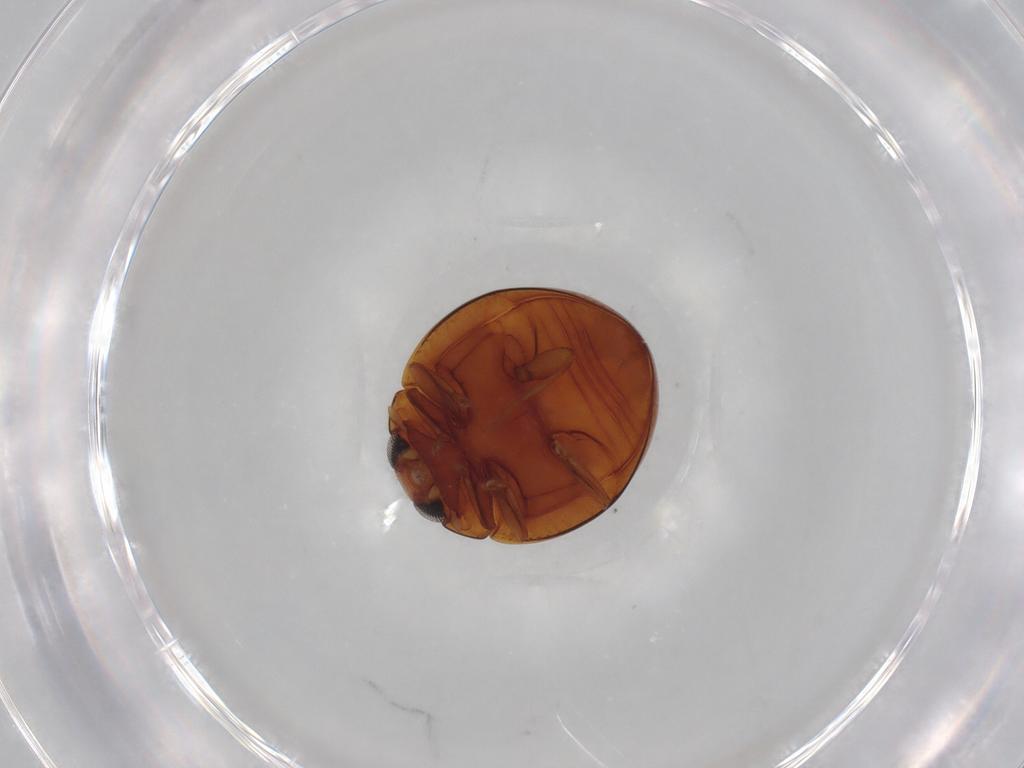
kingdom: Animalia
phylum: Arthropoda
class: Insecta
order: Coleoptera
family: Coccinellidae
